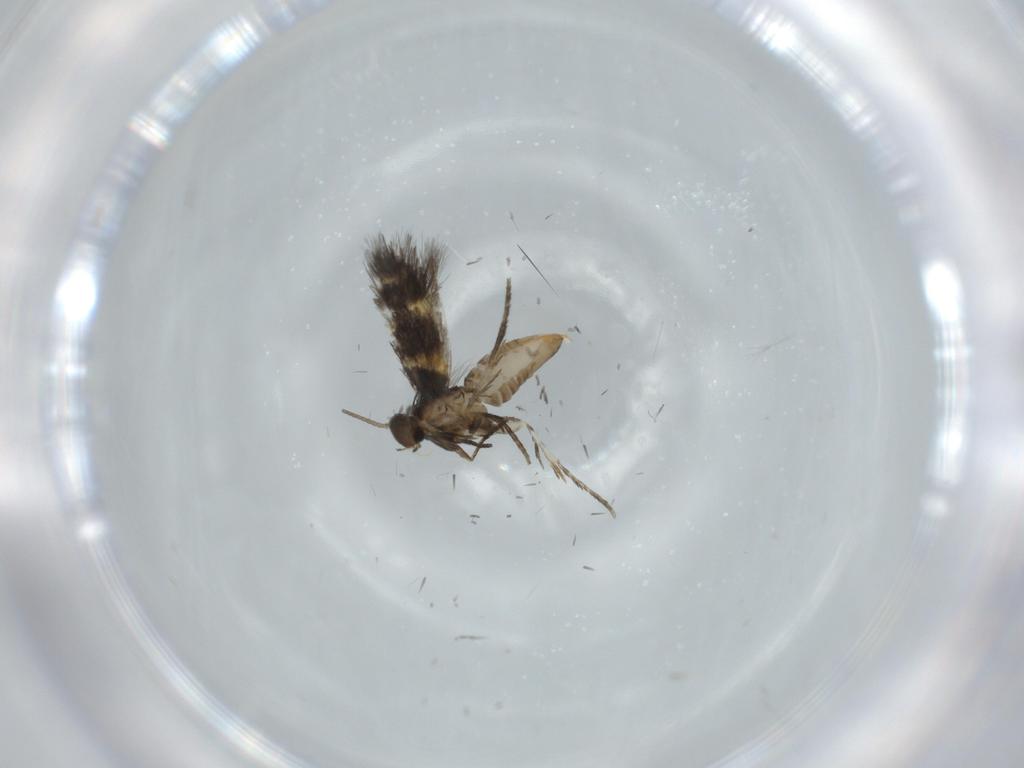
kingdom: Animalia
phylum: Arthropoda
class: Insecta
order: Lepidoptera
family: Heliozelidae
